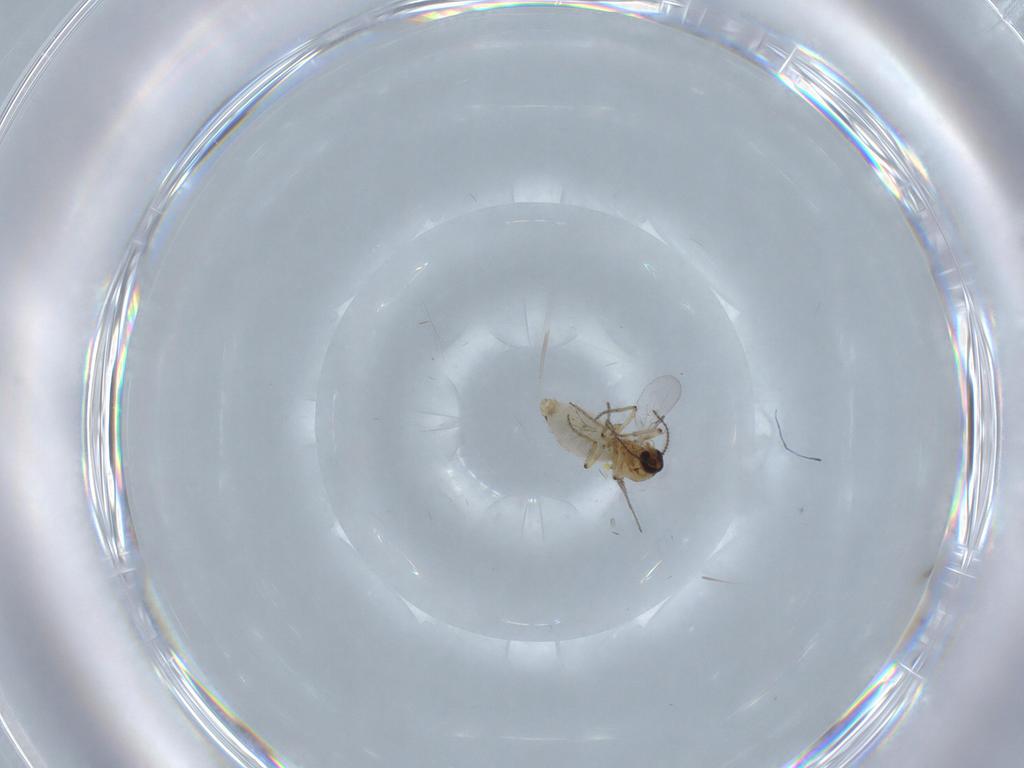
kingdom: Animalia
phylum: Arthropoda
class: Insecta
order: Diptera
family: Ceratopogonidae
